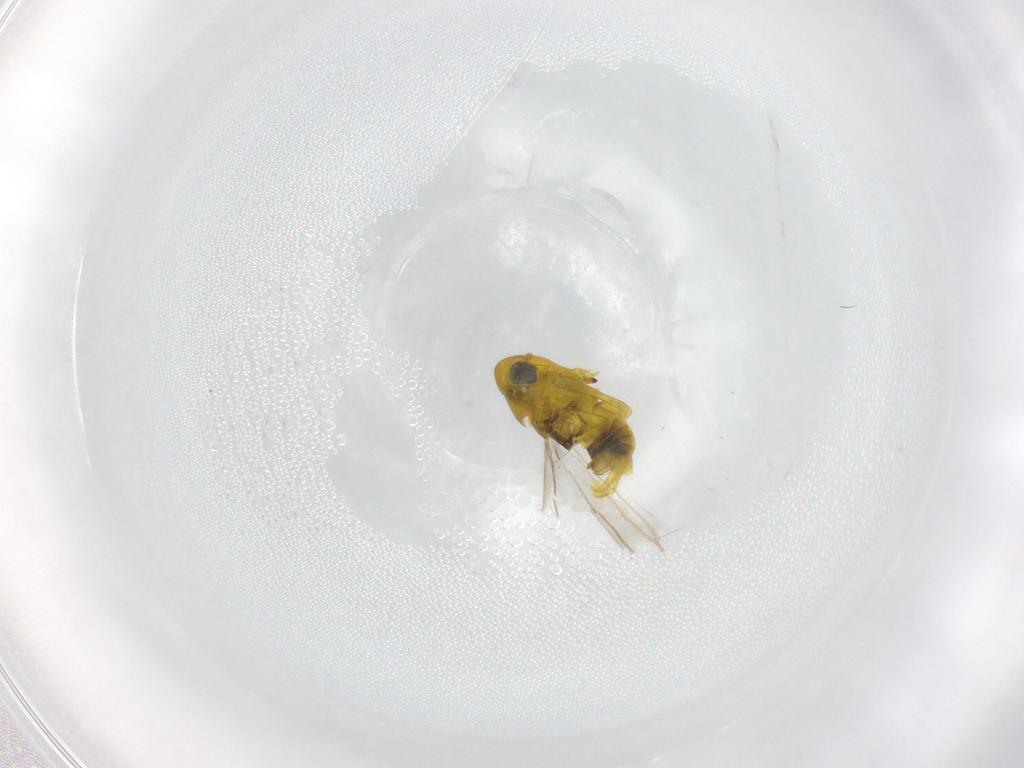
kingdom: Animalia
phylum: Arthropoda
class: Insecta
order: Hemiptera
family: Cicadellidae
